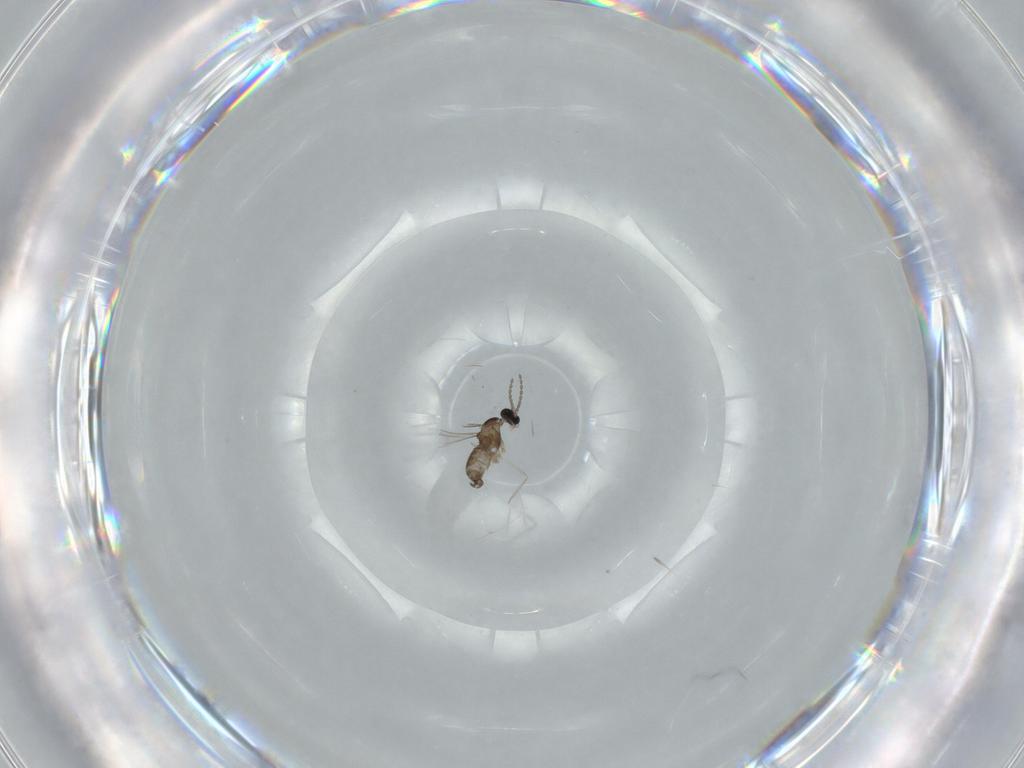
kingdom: Animalia
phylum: Arthropoda
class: Insecta
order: Diptera
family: Cecidomyiidae
